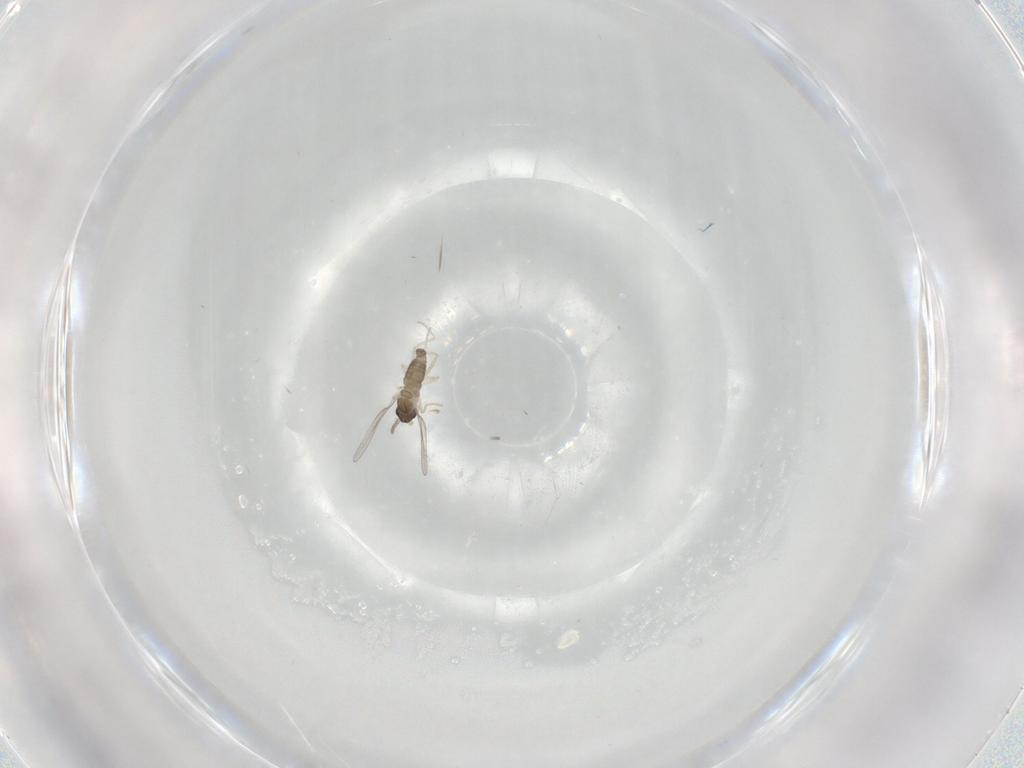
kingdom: Animalia
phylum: Arthropoda
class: Insecta
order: Diptera
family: Cecidomyiidae
